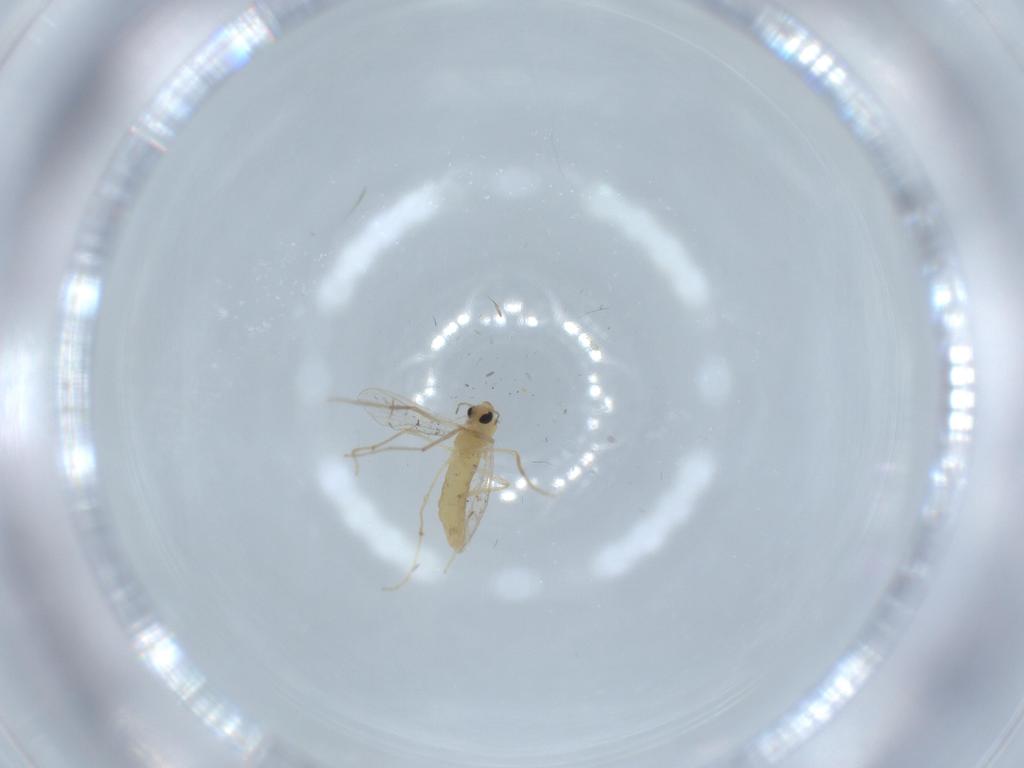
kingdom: Animalia
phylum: Arthropoda
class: Insecta
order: Diptera
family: Chironomidae
